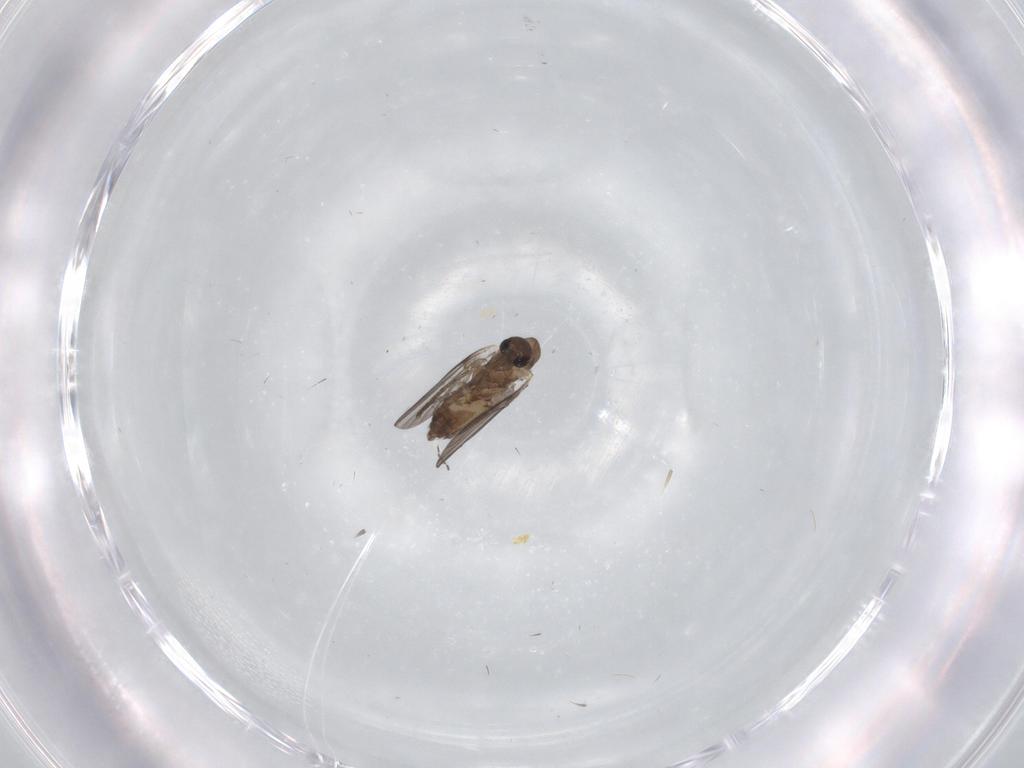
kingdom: Animalia
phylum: Arthropoda
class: Insecta
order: Diptera
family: Cecidomyiidae
